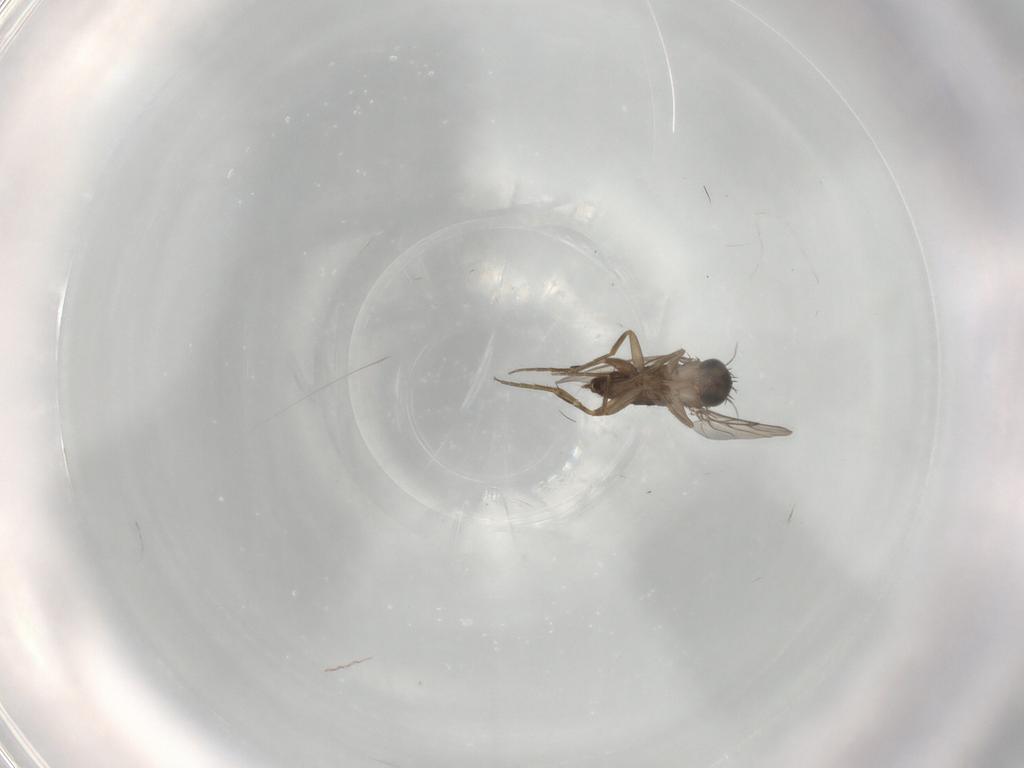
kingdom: Animalia
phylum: Arthropoda
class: Insecta
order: Diptera
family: Phoridae
